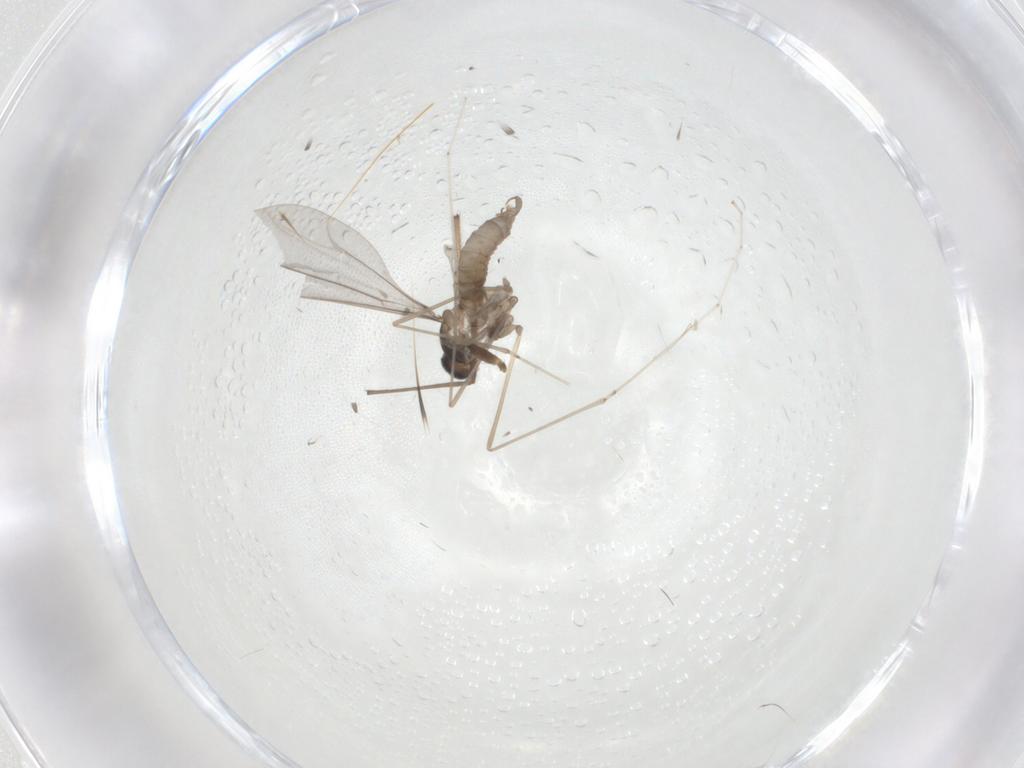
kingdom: Animalia
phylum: Arthropoda
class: Insecta
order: Diptera
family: Cecidomyiidae
